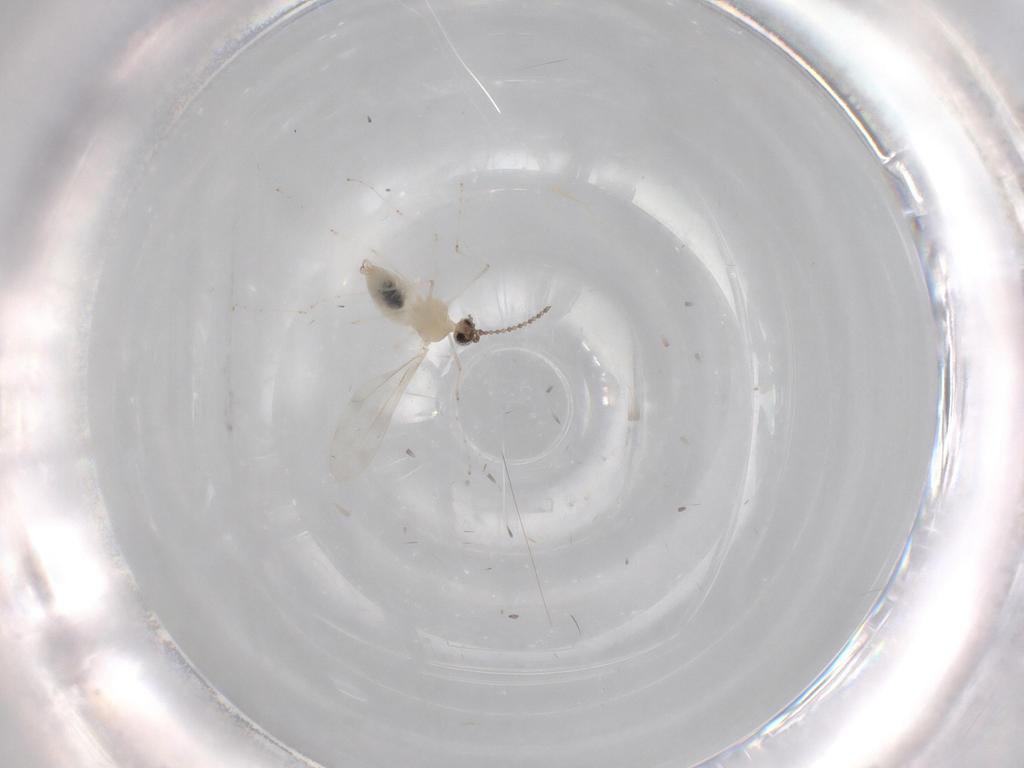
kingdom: Animalia
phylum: Arthropoda
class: Insecta
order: Diptera
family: Cecidomyiidae
